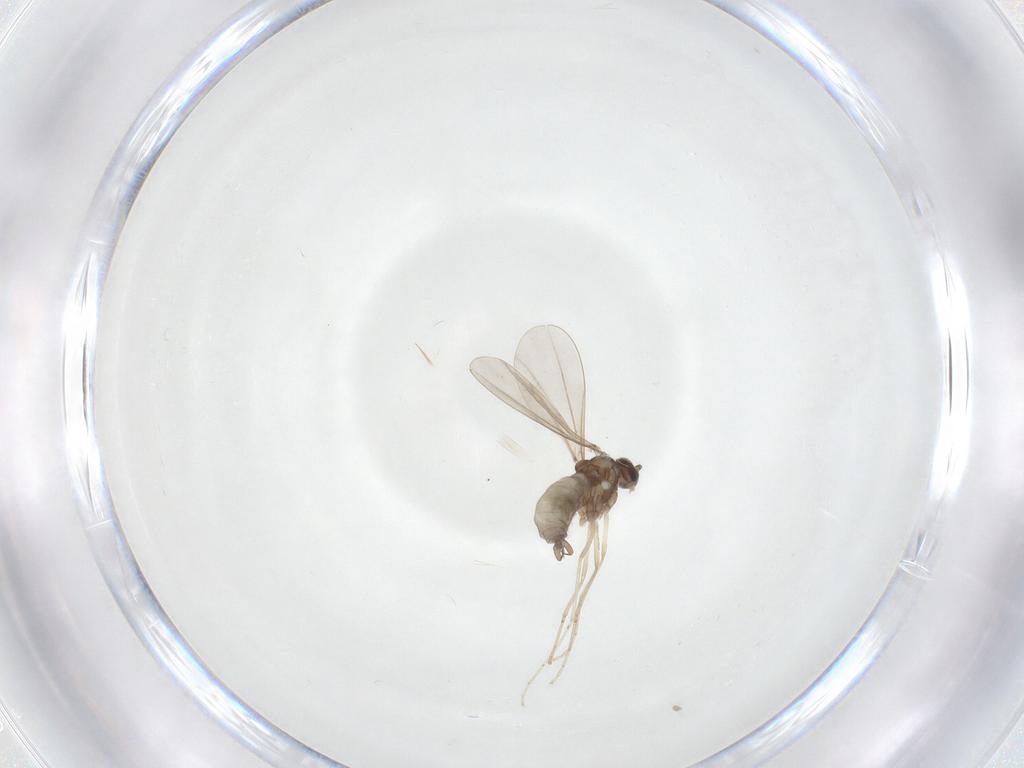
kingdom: Animalia
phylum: Arthropoda
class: Insecta
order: Diptera
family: Cecidomyiidae
